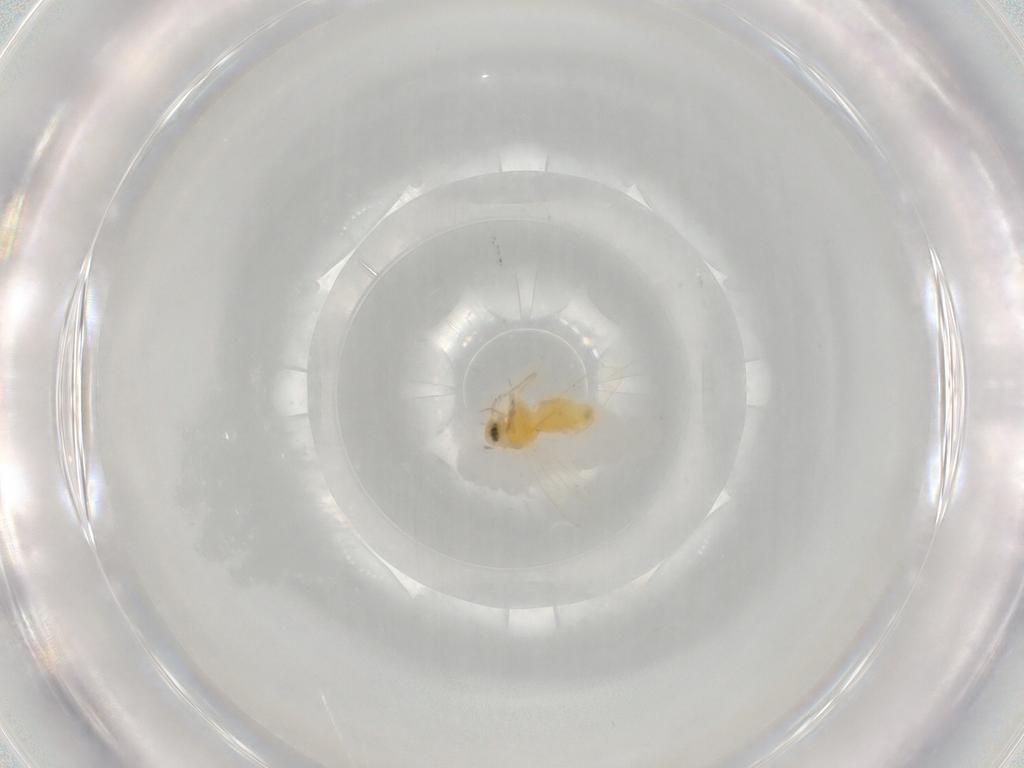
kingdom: Animalia
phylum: Arthropoda
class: Insecta
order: Hemiptera
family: Aleyrodidae
